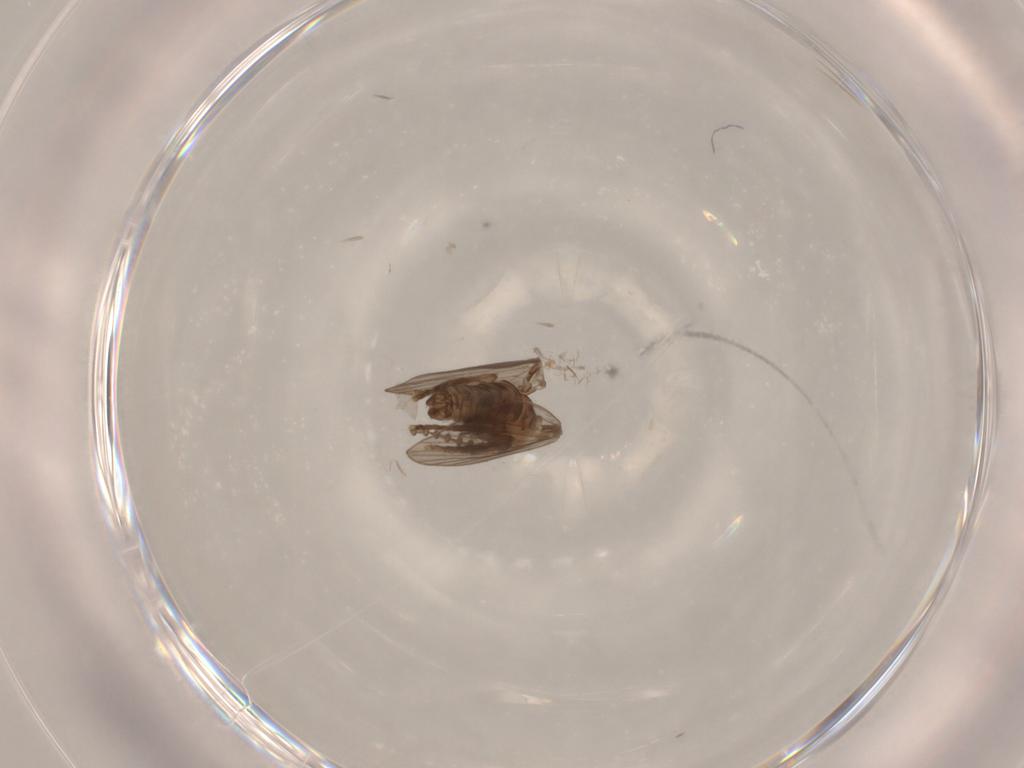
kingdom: Animalia
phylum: Arthropoda
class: Insecta
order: Diptera
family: Psychodidae
